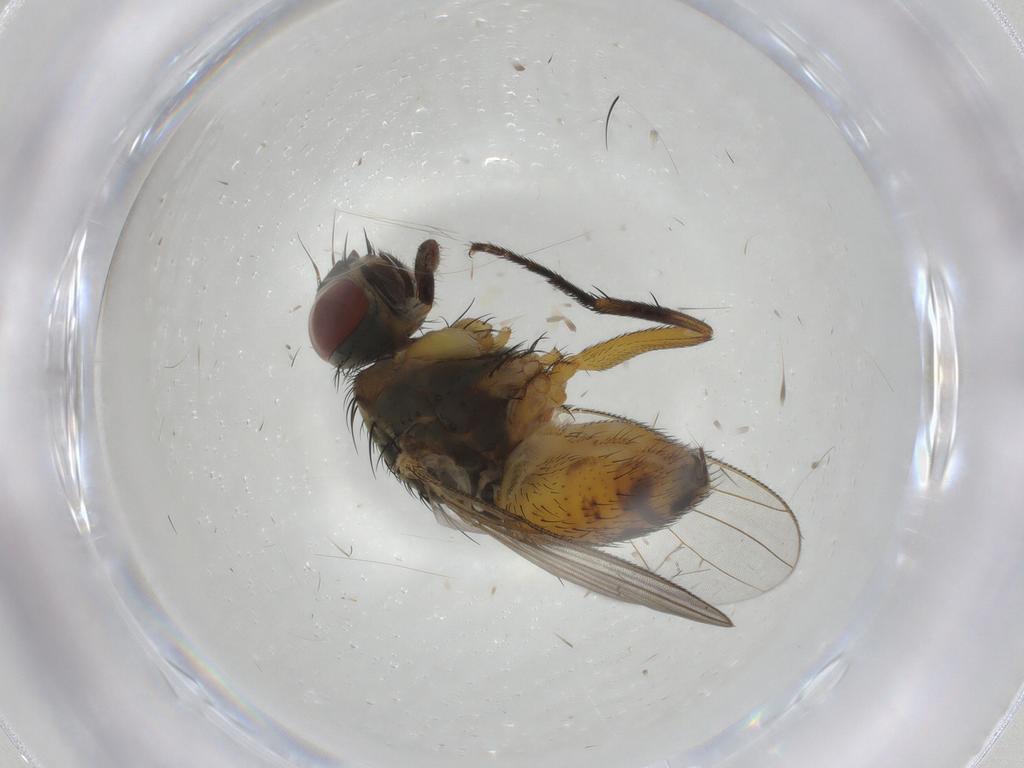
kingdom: Animalia
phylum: Arthropoda
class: Insecta
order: Diptera
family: Muscidae
